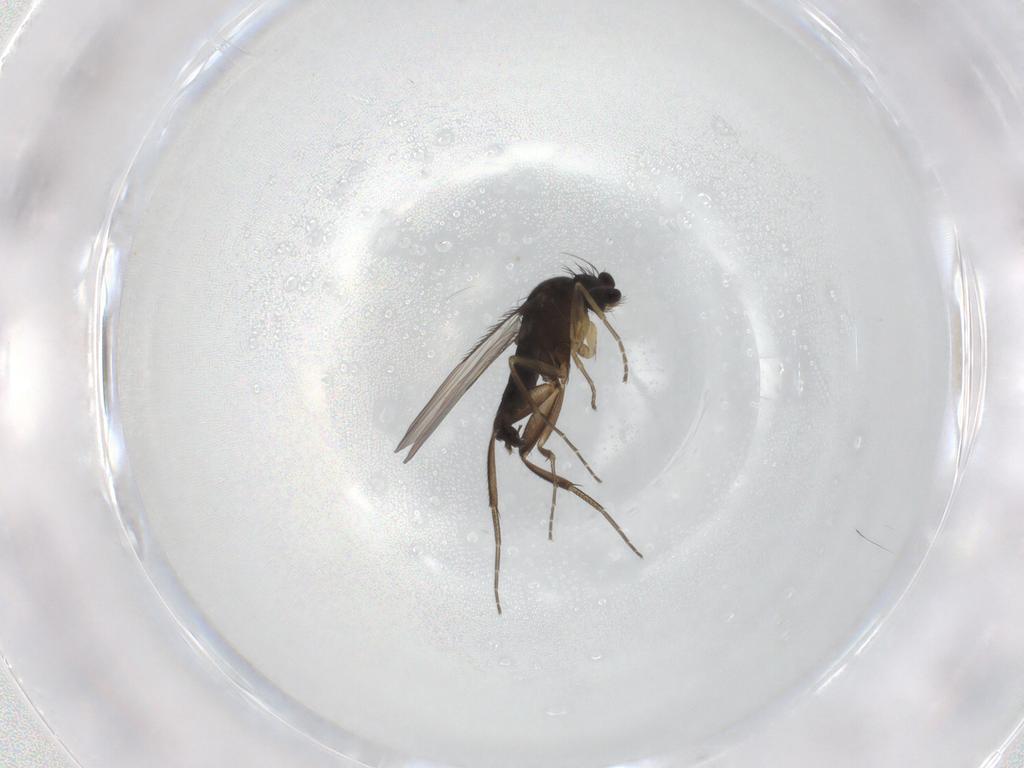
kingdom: Animalia
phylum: Arthropoda
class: Insecta
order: Diptera
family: Phoridae
